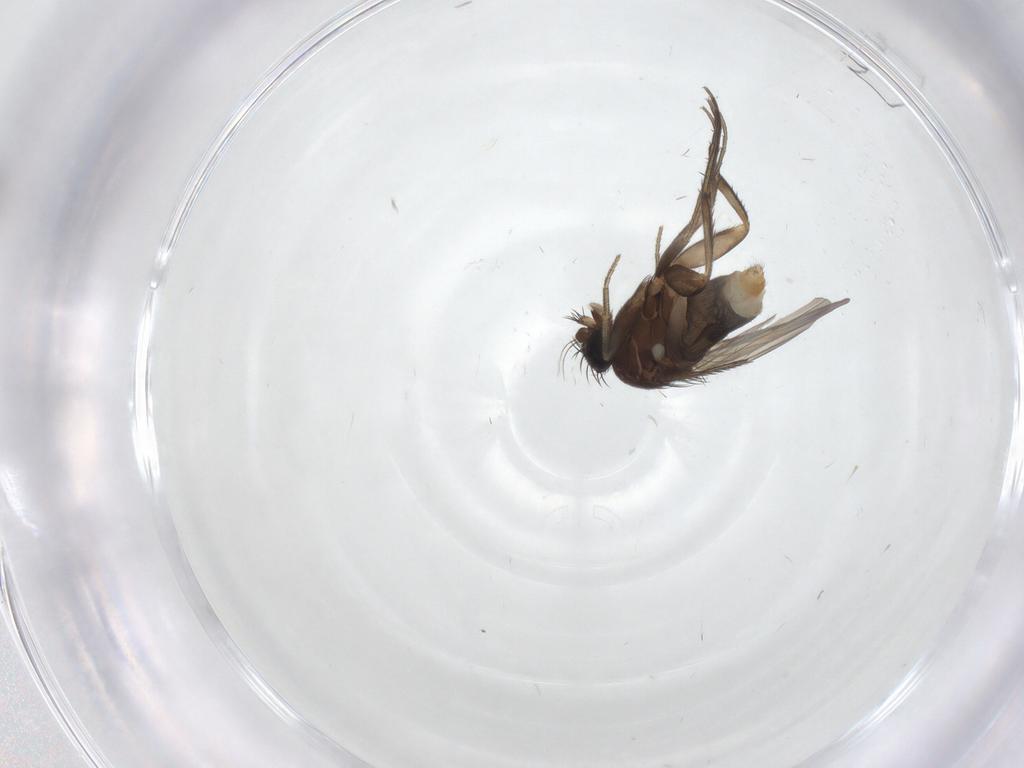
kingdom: Animalia
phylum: Arthropoda
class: Insecta
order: Diptera
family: Phoridae
